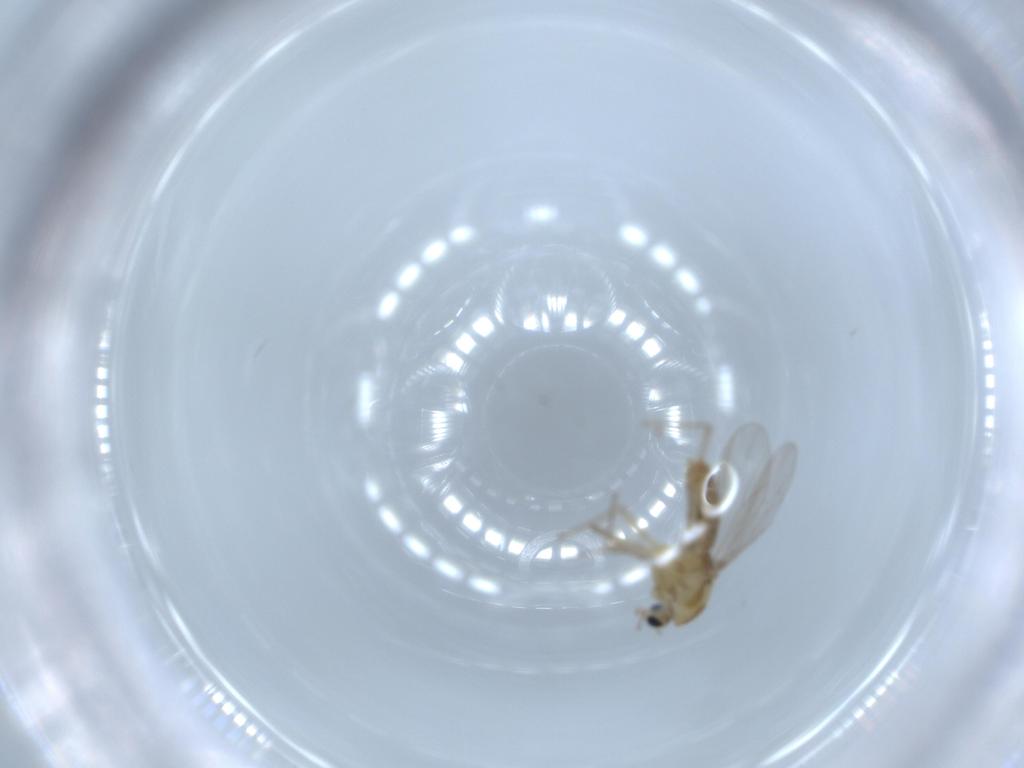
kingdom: Animalia
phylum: Arthropoda
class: Insecta
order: Diptera
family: Chironomidae
